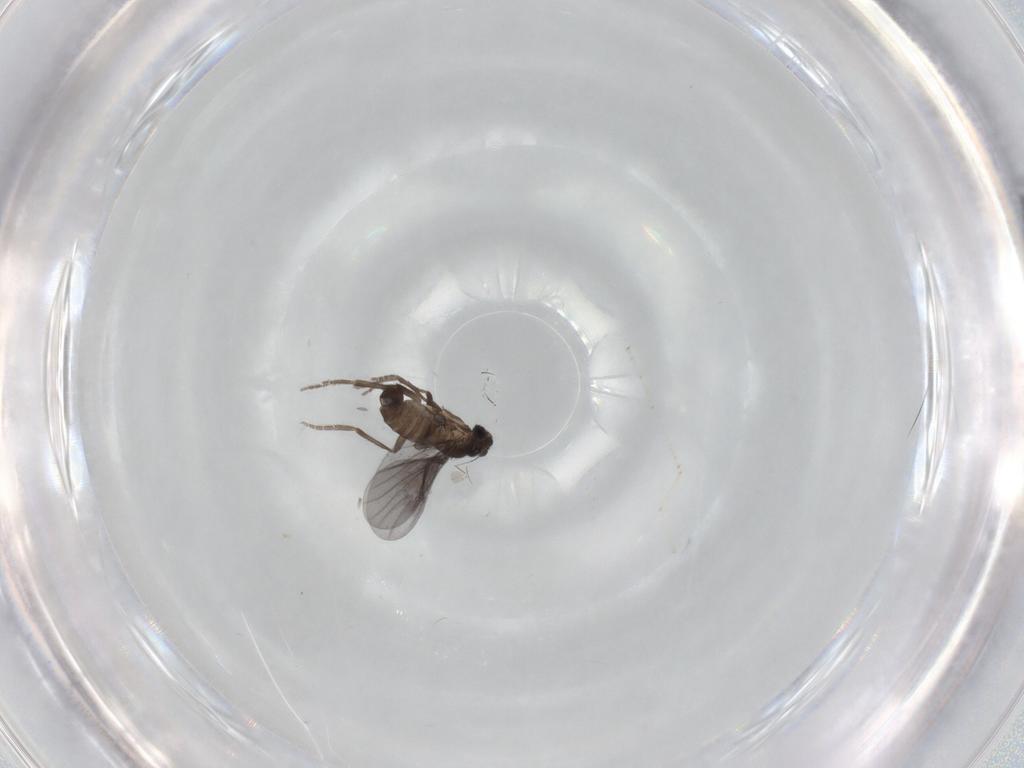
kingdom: Animalia
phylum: Arthropoda
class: Insecta
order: Diptera
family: Phoridae
